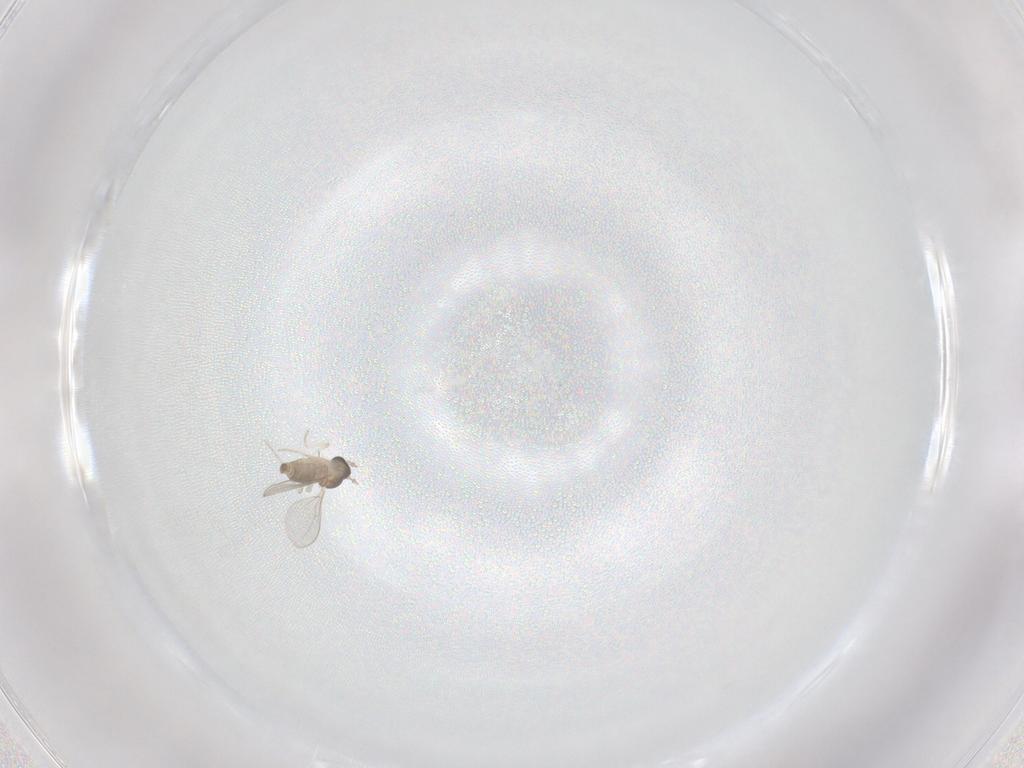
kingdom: Animalia
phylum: Arthropoda
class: Insecta
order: Diptera
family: Cecidomyiidae
